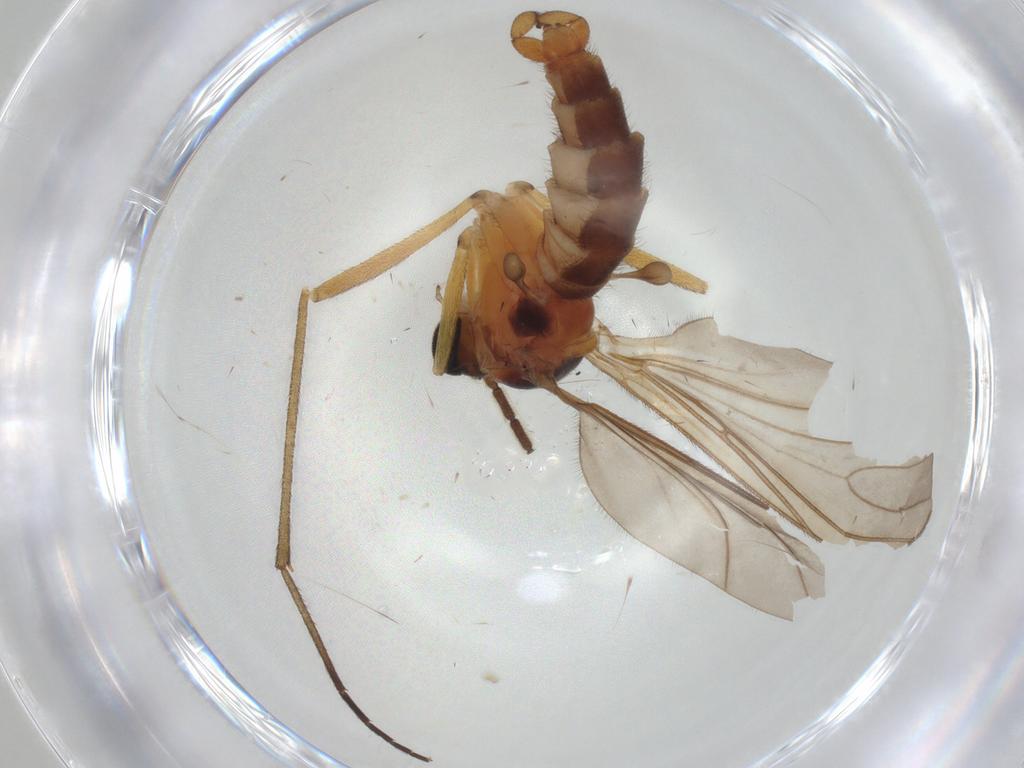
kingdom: Animalia
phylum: Arthropoda
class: Insecta
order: Diptera
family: Sciaridae
